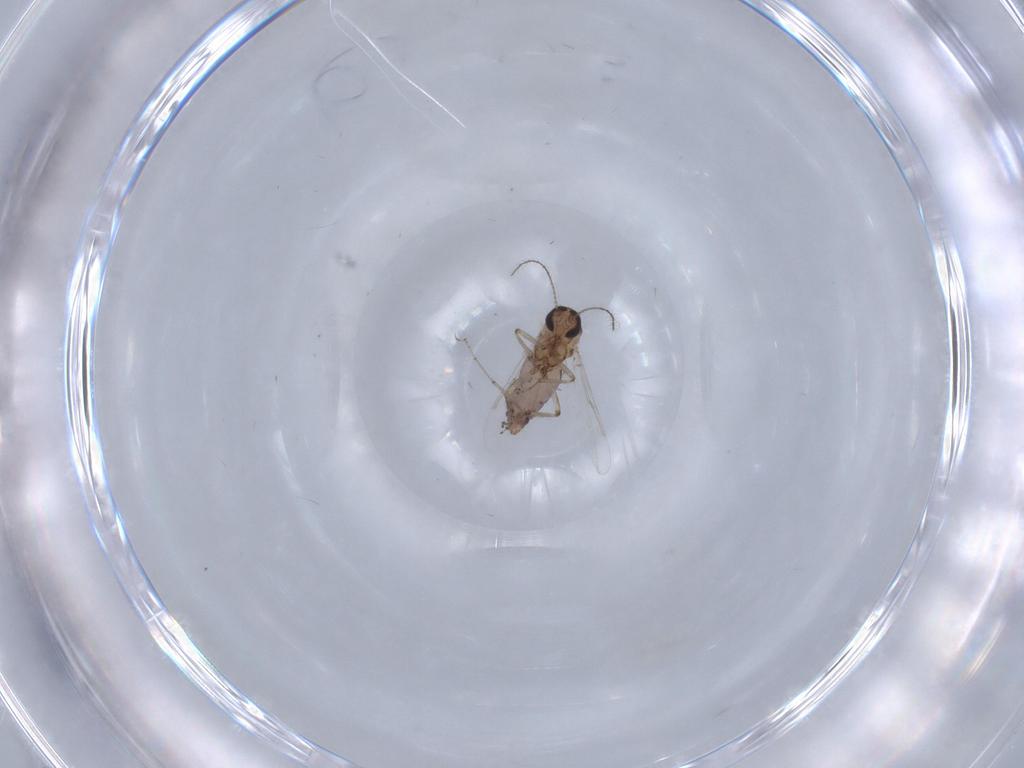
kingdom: Animalia
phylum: Arthropoda
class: Insecta
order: Diptera
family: Ceratopogonidae
